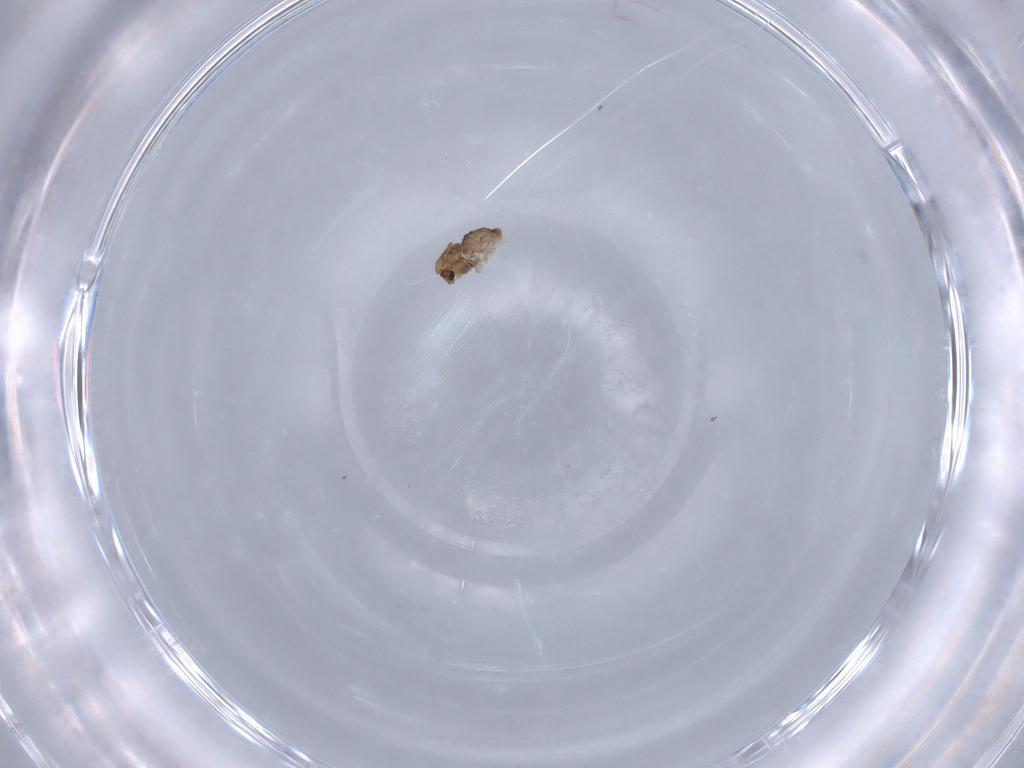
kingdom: Animalia
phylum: Arthropoda
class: Insecta
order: Diptera
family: Chironomidae
